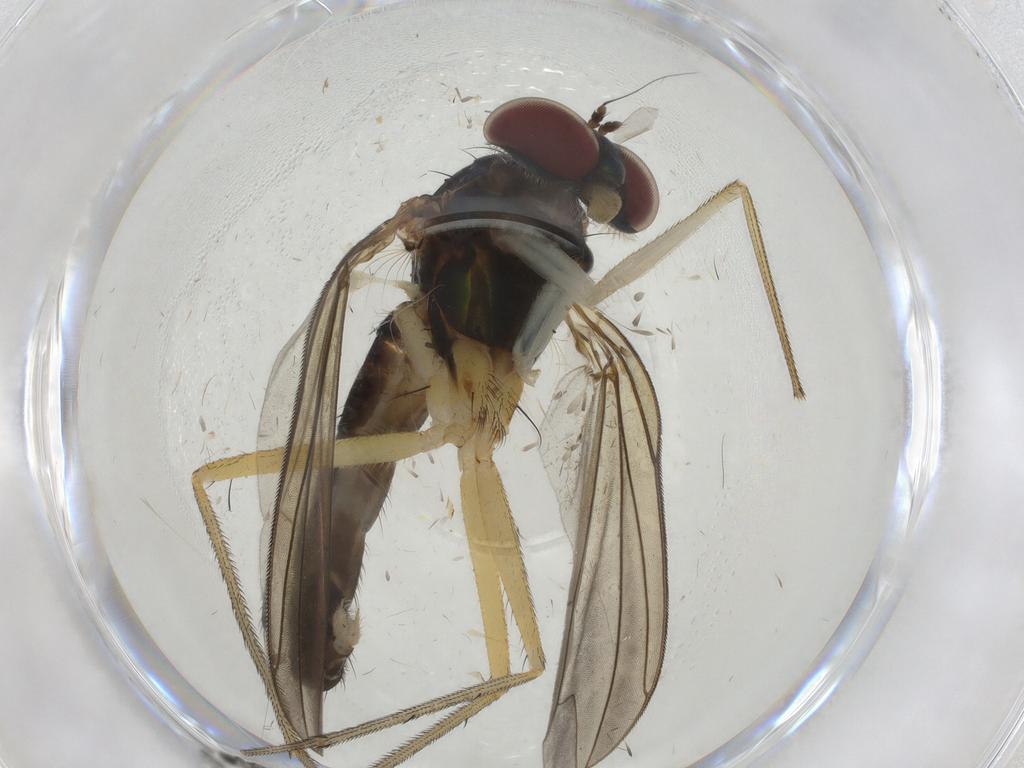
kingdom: Animalia
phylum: Arthropoda
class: Insecta
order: Diptera
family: Dolichopodidae
